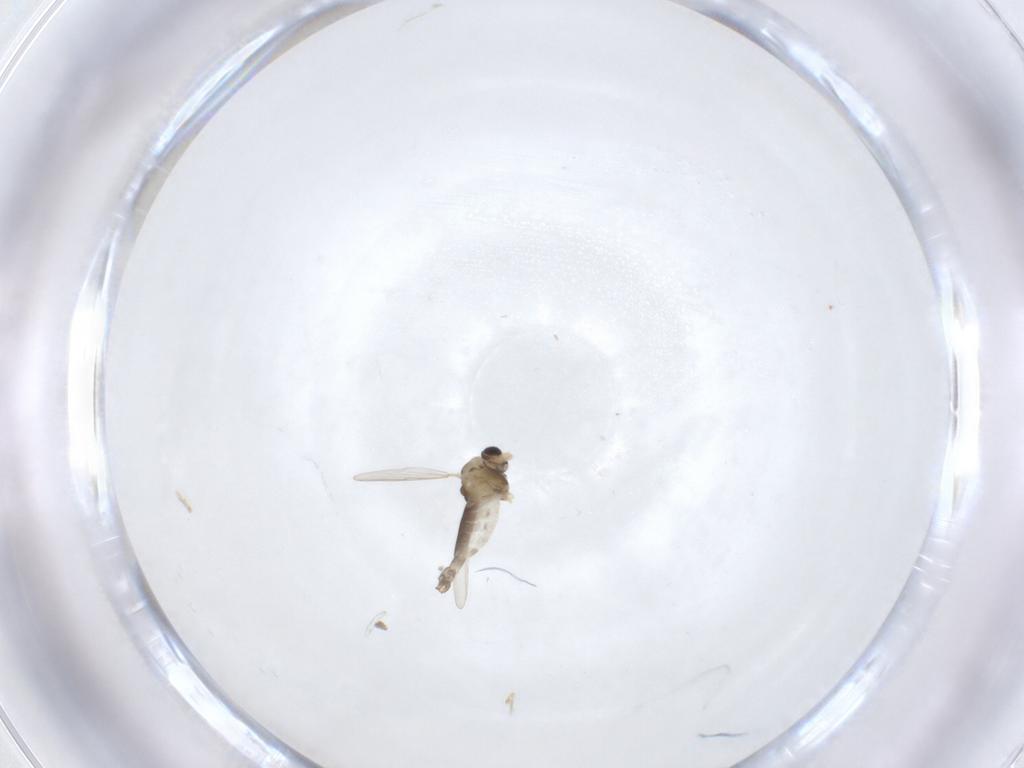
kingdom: Animalia
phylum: Arthropoda
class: Insecta
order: Diptera
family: Chironomidae
